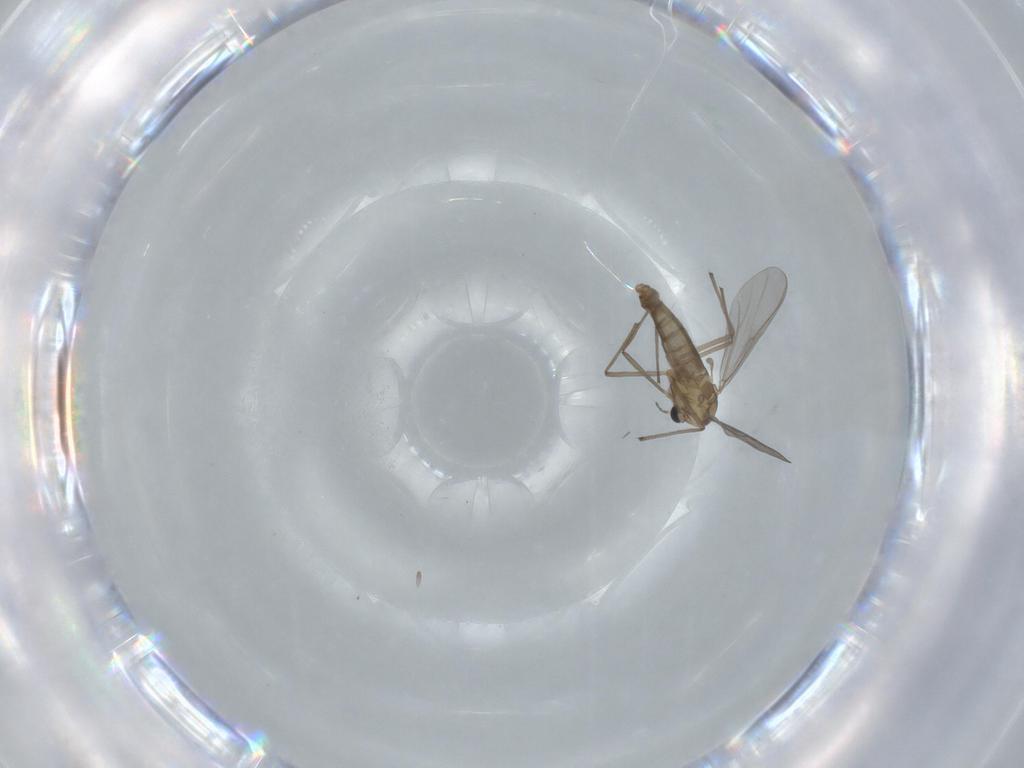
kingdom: Animalia
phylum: Arthropoda
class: Insecta
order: Diptera
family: Chironomidae
